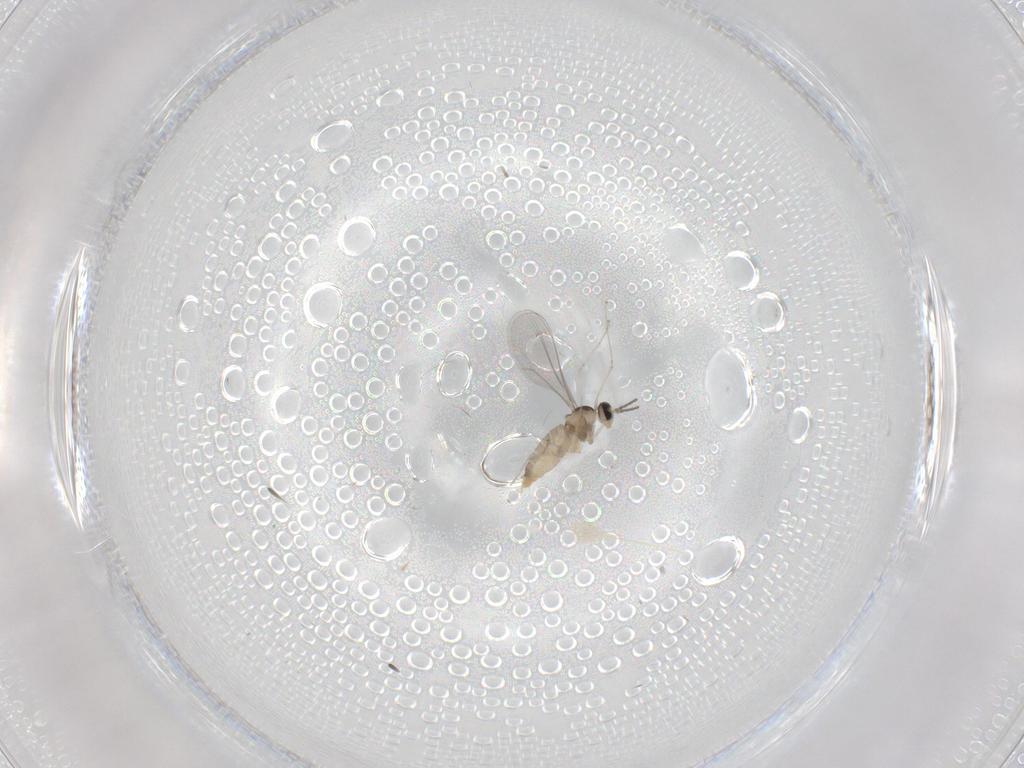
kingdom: Animalia
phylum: Arthropoda
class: Insecta
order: Diptera
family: Cecidomyiidae
